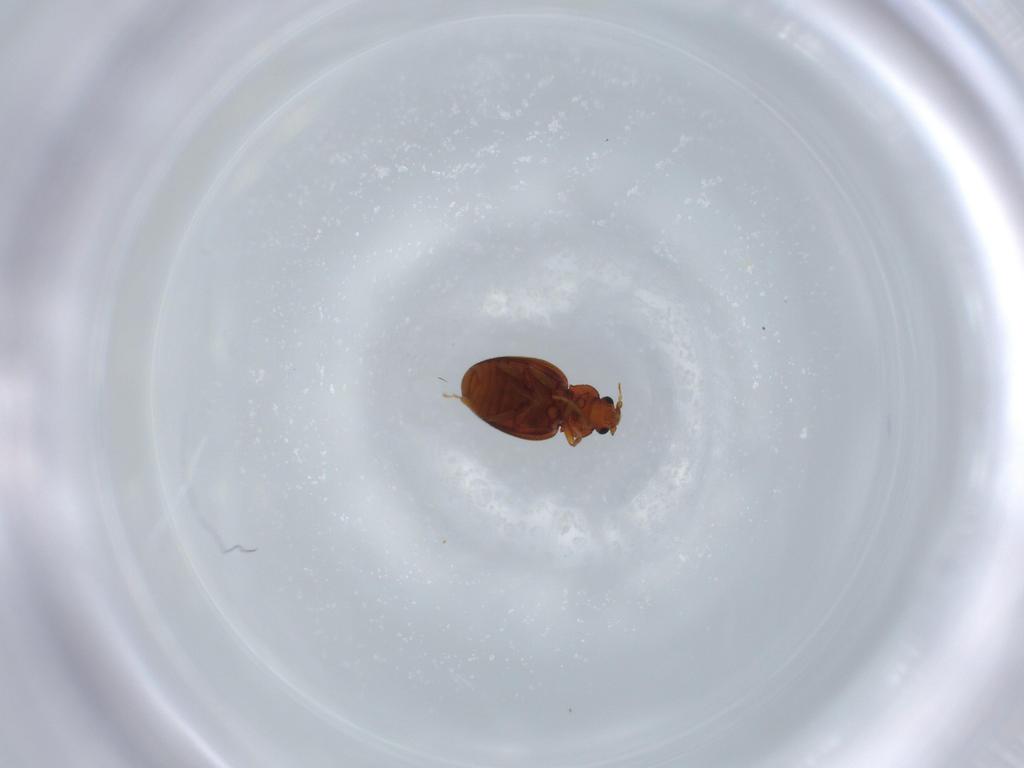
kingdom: Animalia
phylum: Arthropoda
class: Insecta
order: Coleoptera
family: Latridiidae
